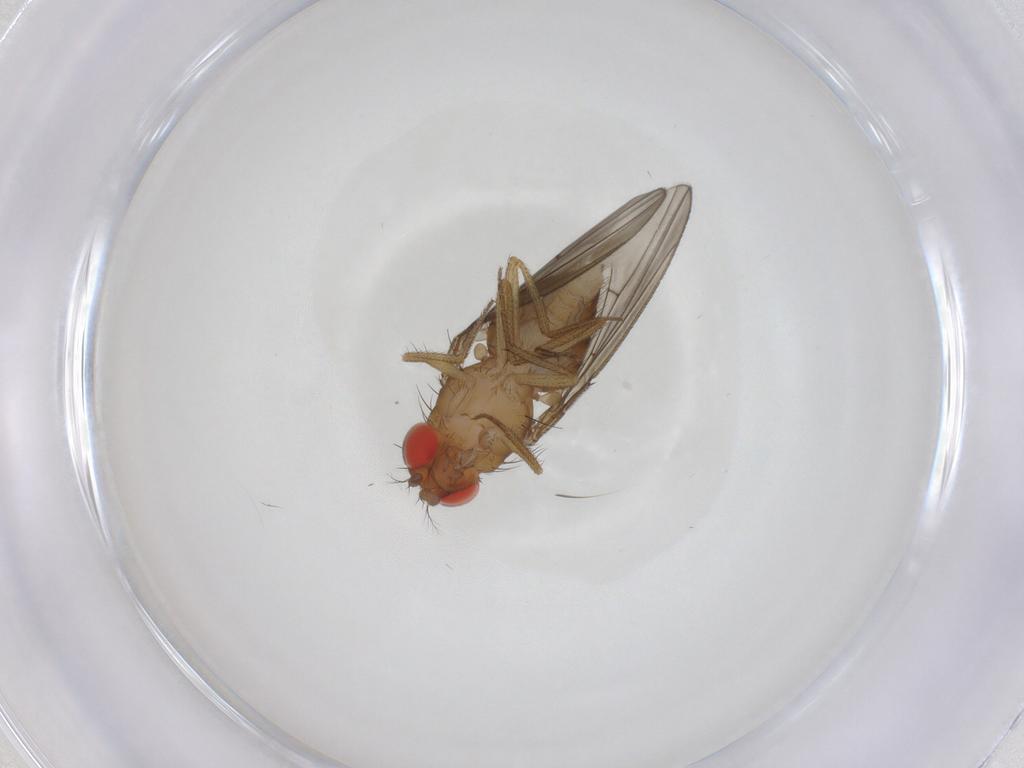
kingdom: Animalia
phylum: Arthropoda
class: Insecta
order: Diptera
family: Drosophilidae
